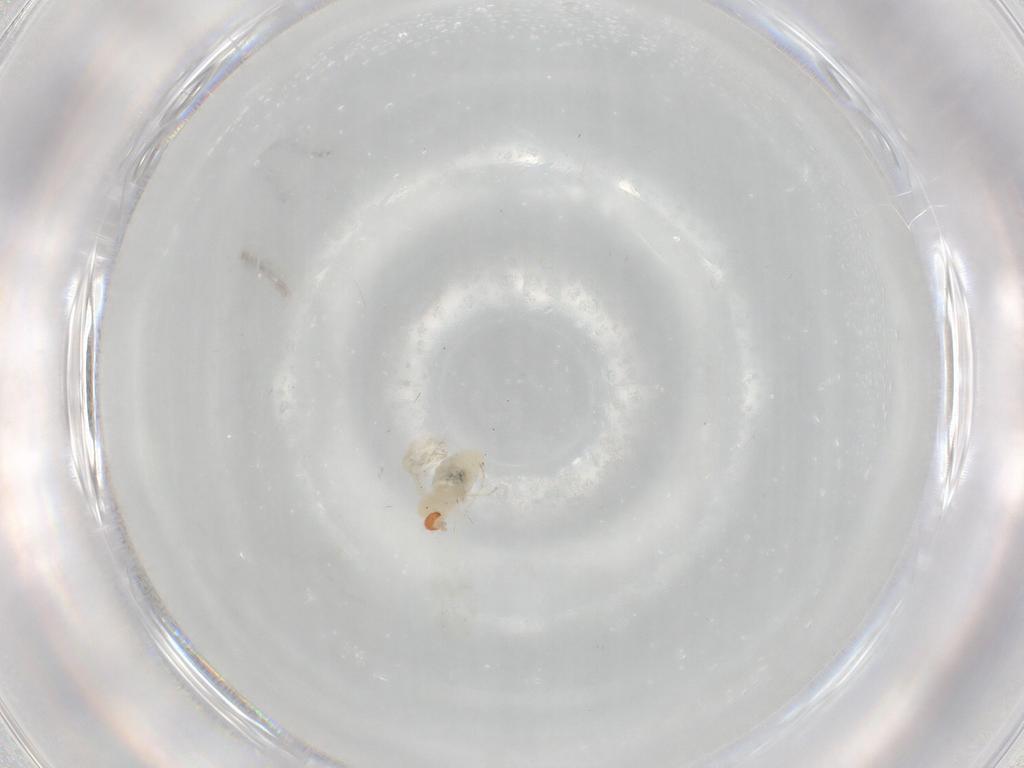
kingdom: Animalia
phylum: Arthropoda
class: Insecta
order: Diptera
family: Cecidomyiidae
